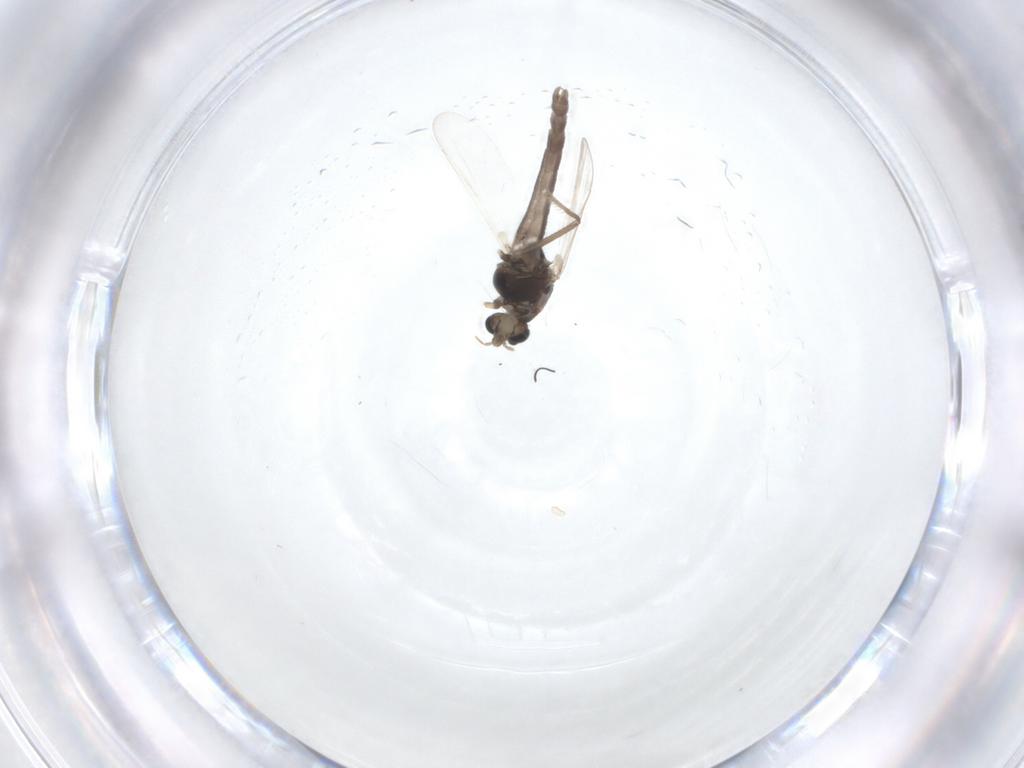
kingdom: Animalia
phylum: Arthropoda
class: Insecta
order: Diptera
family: Chironomidae
